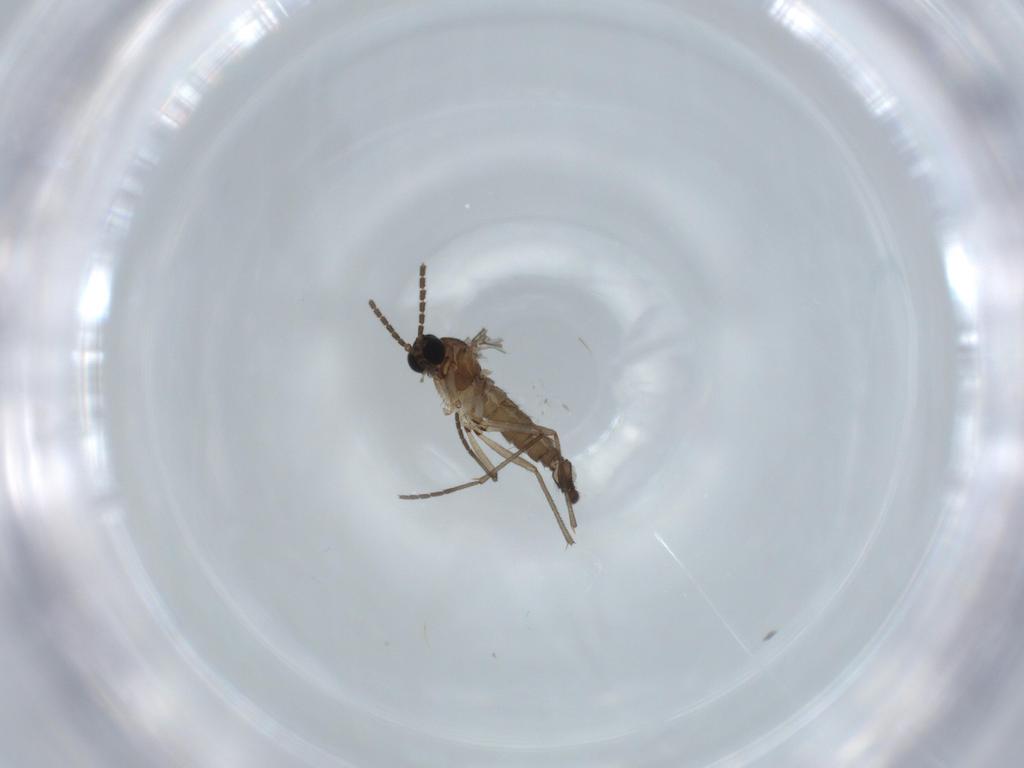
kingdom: Animalia
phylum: Arthropoda
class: Insecta
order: Diptera
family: Sciaridae
